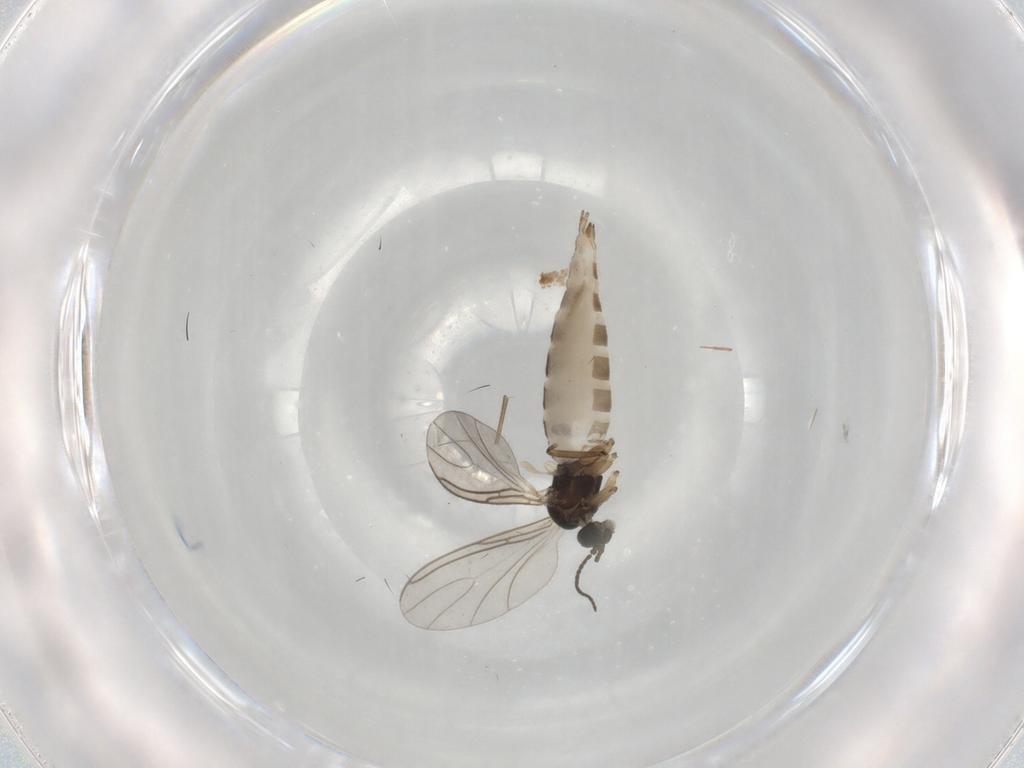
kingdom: Animalia
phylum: Arthropoda
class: Insecta
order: Diptera
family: Sciaridae
